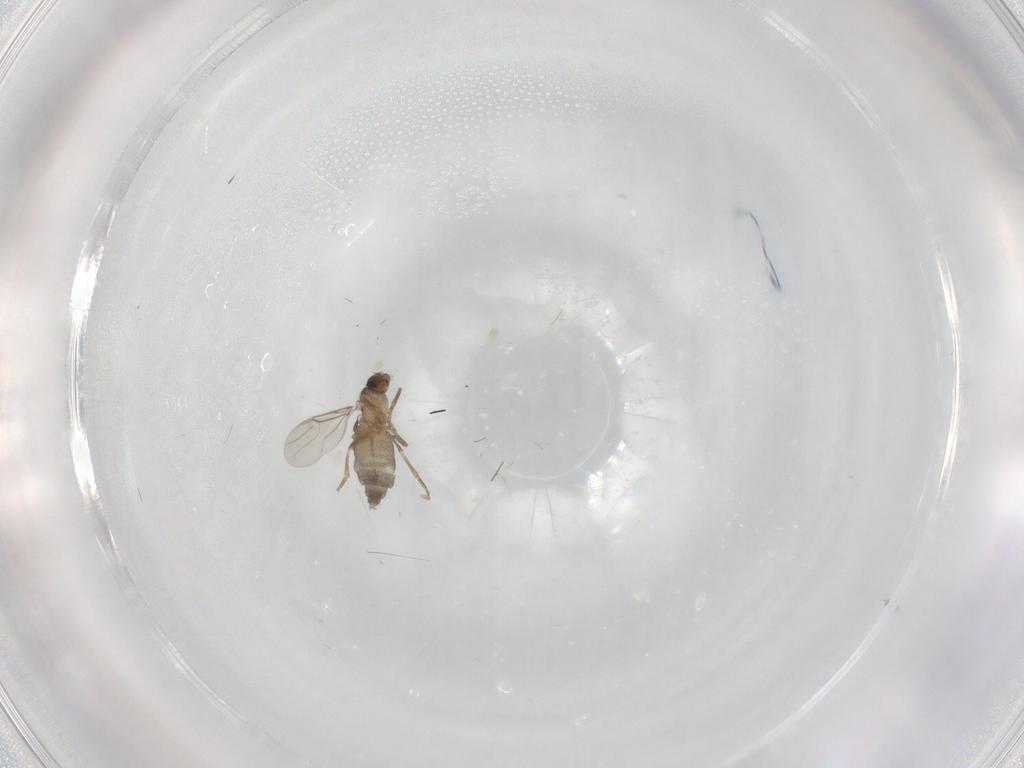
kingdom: Animalia
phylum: Arthropoda
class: Insecta
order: Diptera
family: Phoridae
